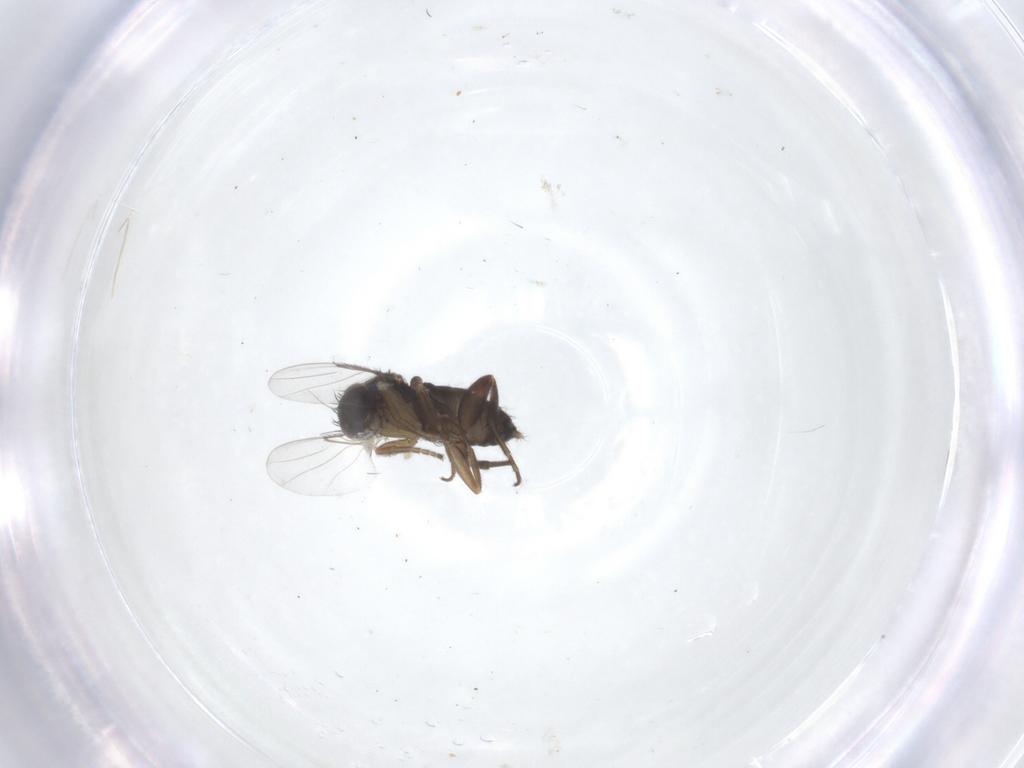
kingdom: Animalia
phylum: Arthropoda
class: Insecta
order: Diptera
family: Phoridae
